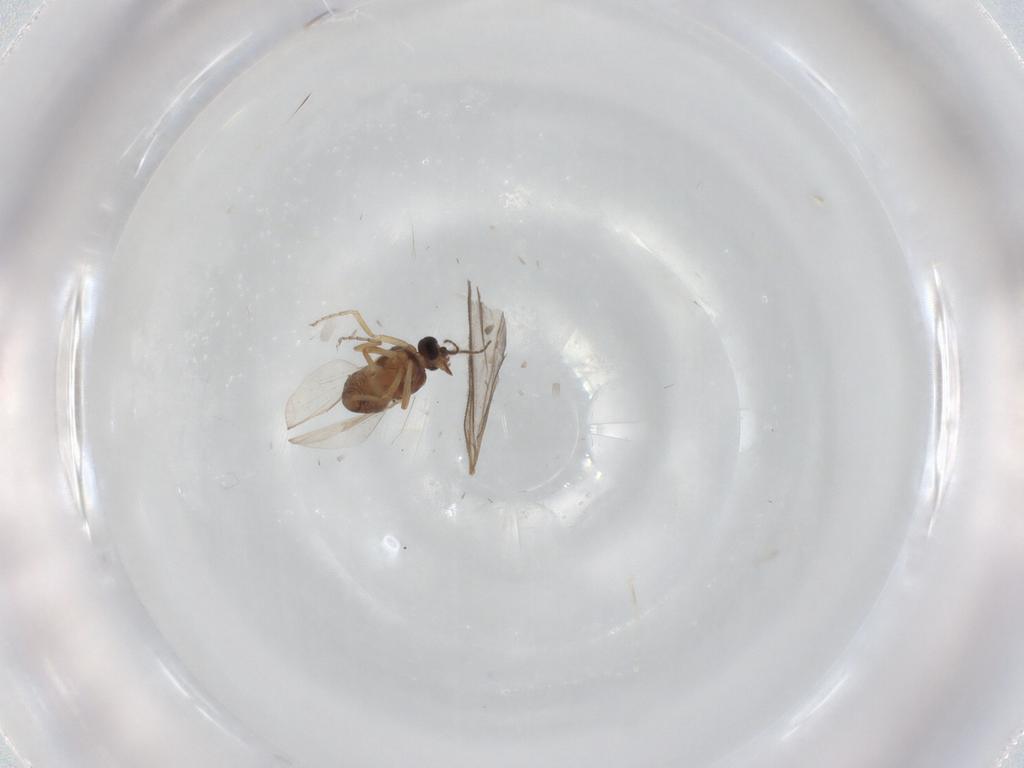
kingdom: Animalia
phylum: Arthropoda
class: Insecta
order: Diptera
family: Ceratopogonidae
